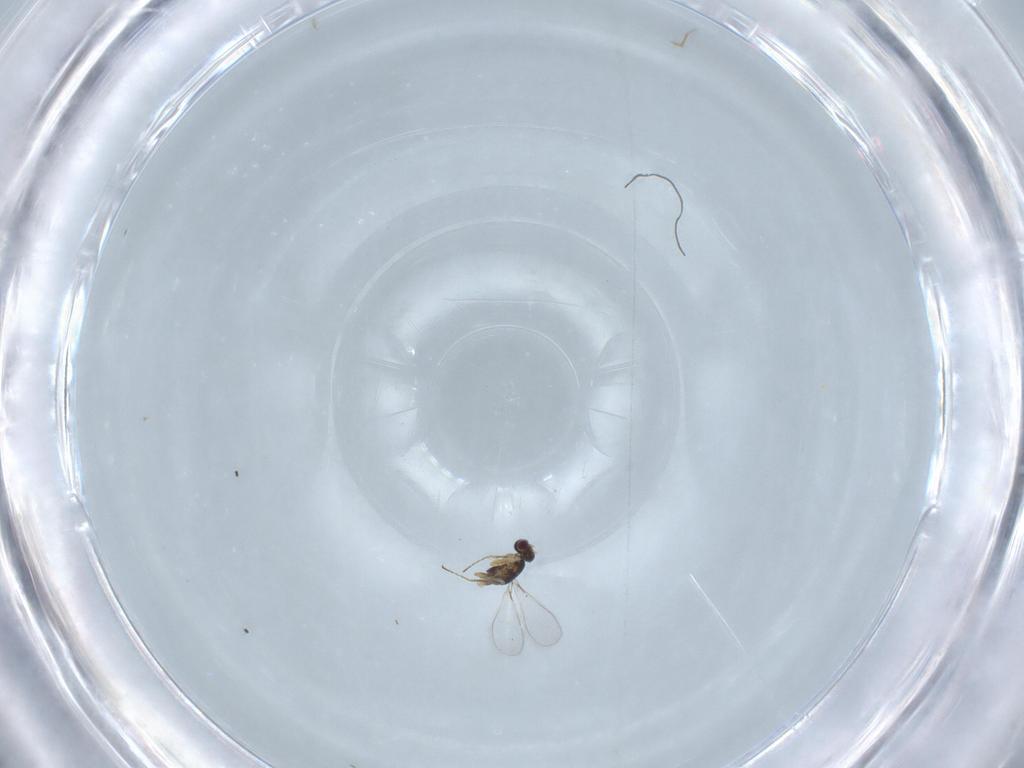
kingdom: Animalia
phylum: Arthropoda
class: Insecta
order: Hymenoptera
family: Mymaridae
